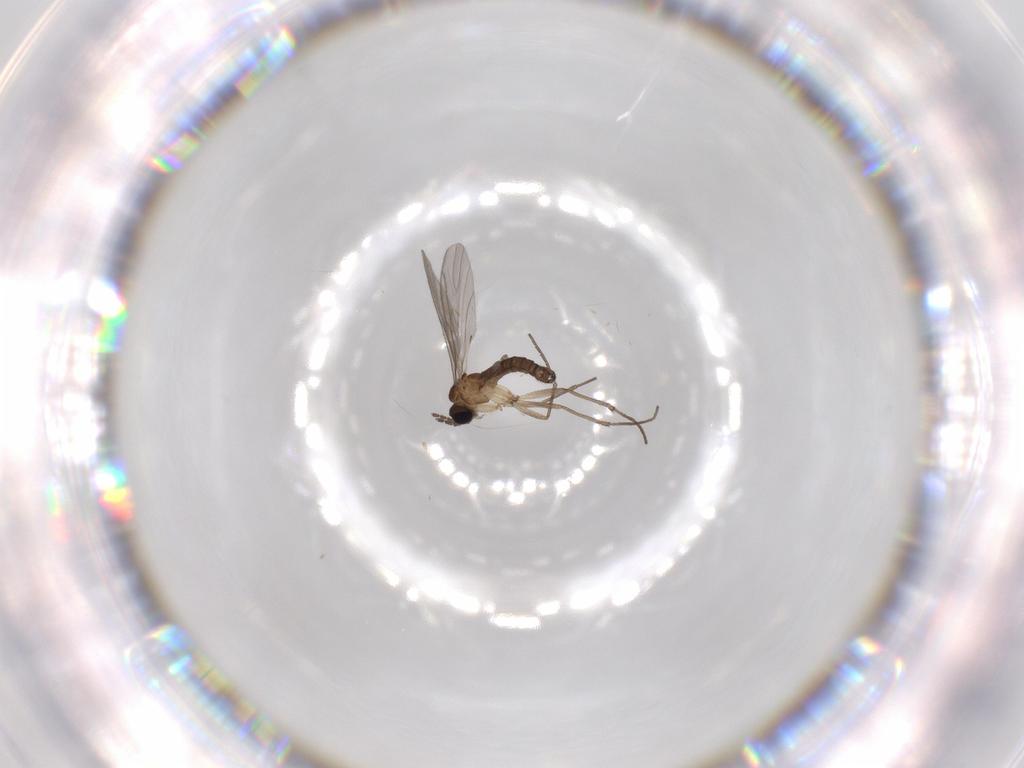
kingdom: Animalia
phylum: Arthropoda
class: Insecta
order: Diptera
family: Sciaridae
